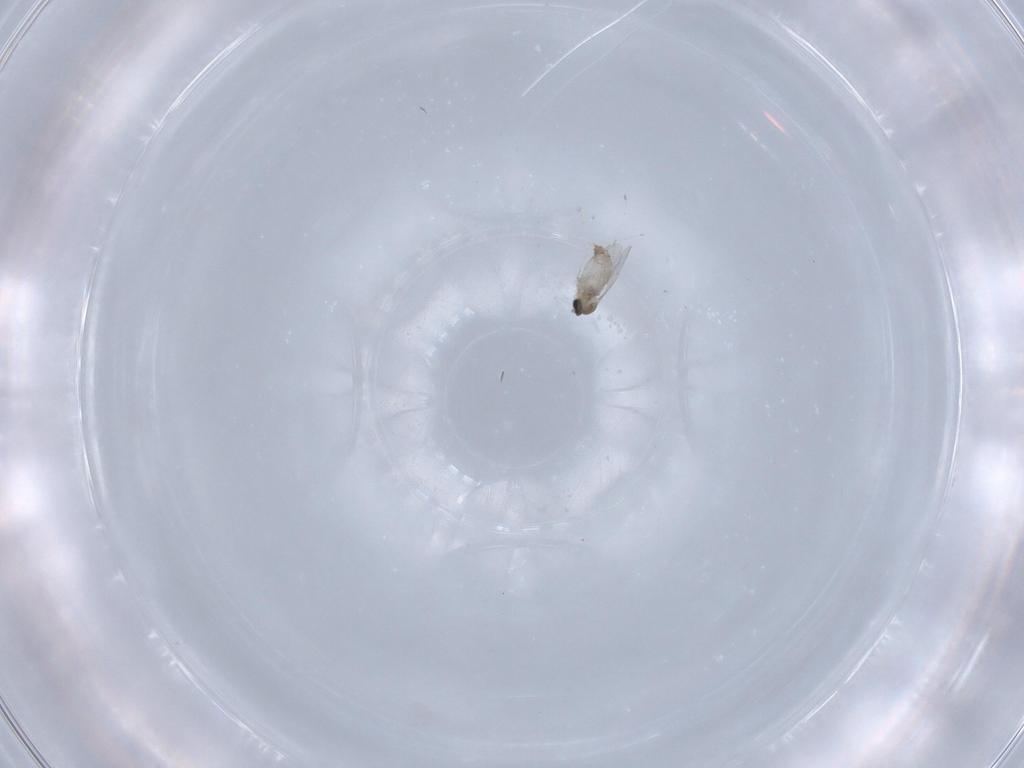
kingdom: Animalia
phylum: Arthropoda
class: Insecta
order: Diptera
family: Cecidomyiidae
